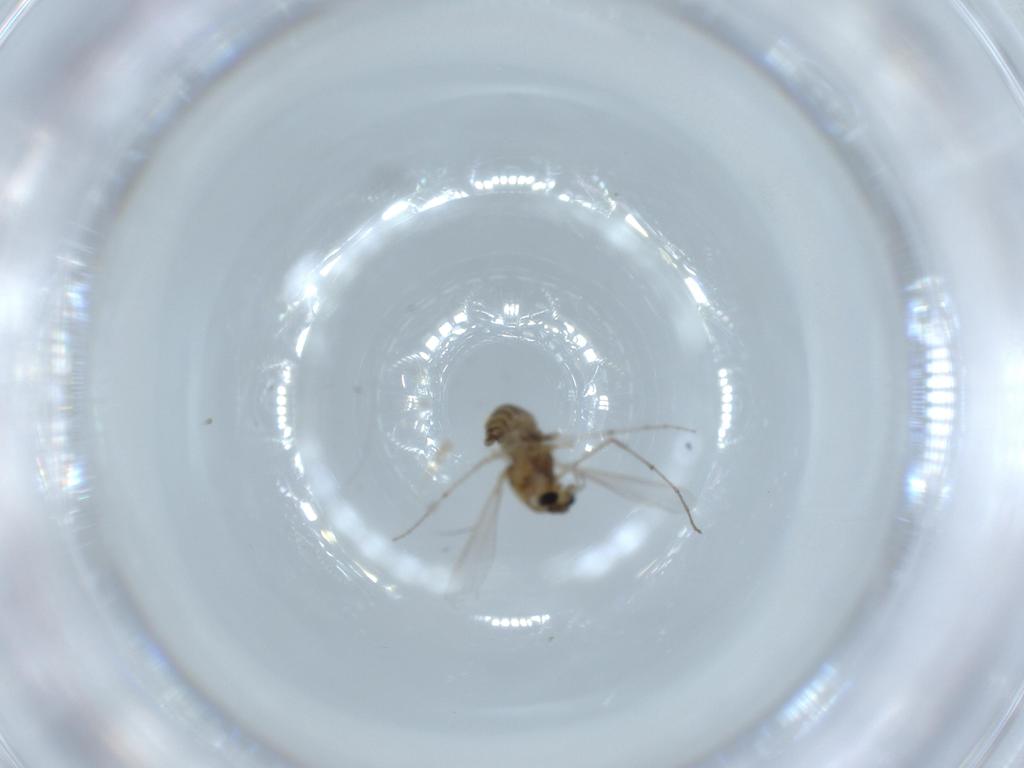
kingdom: Animalia
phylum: Arthropoda
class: Insecta
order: Diptera
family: Chironomidae
